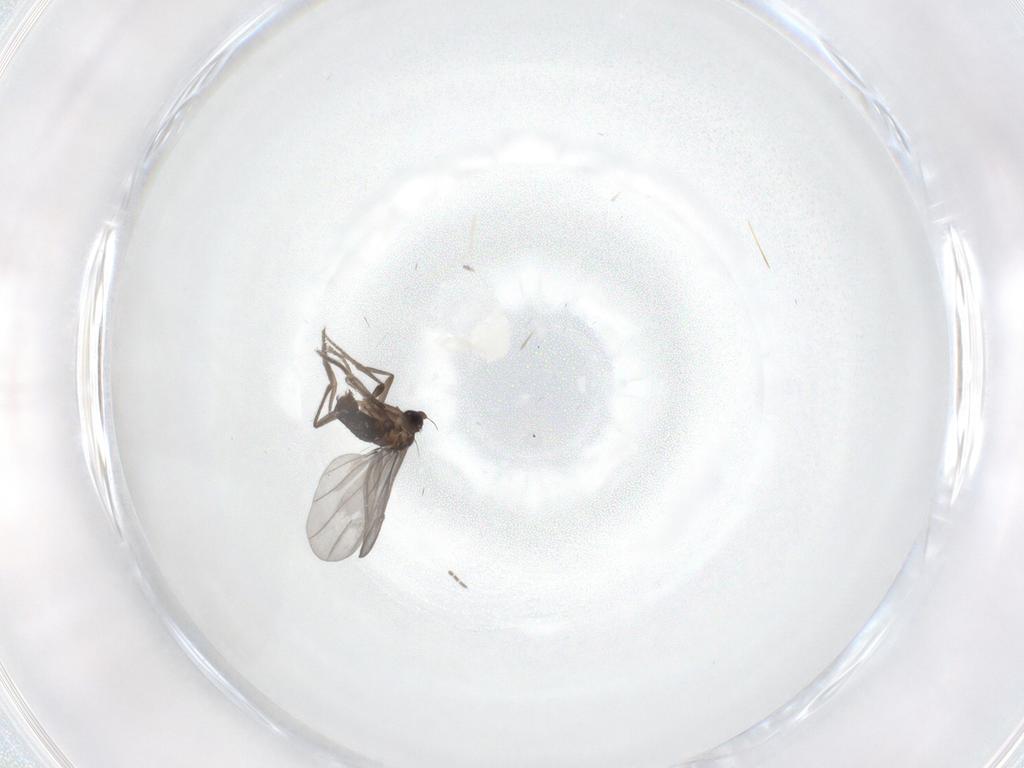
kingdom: Animalia
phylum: Arthropoda
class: Insecta
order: Diptera
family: Phoridae
